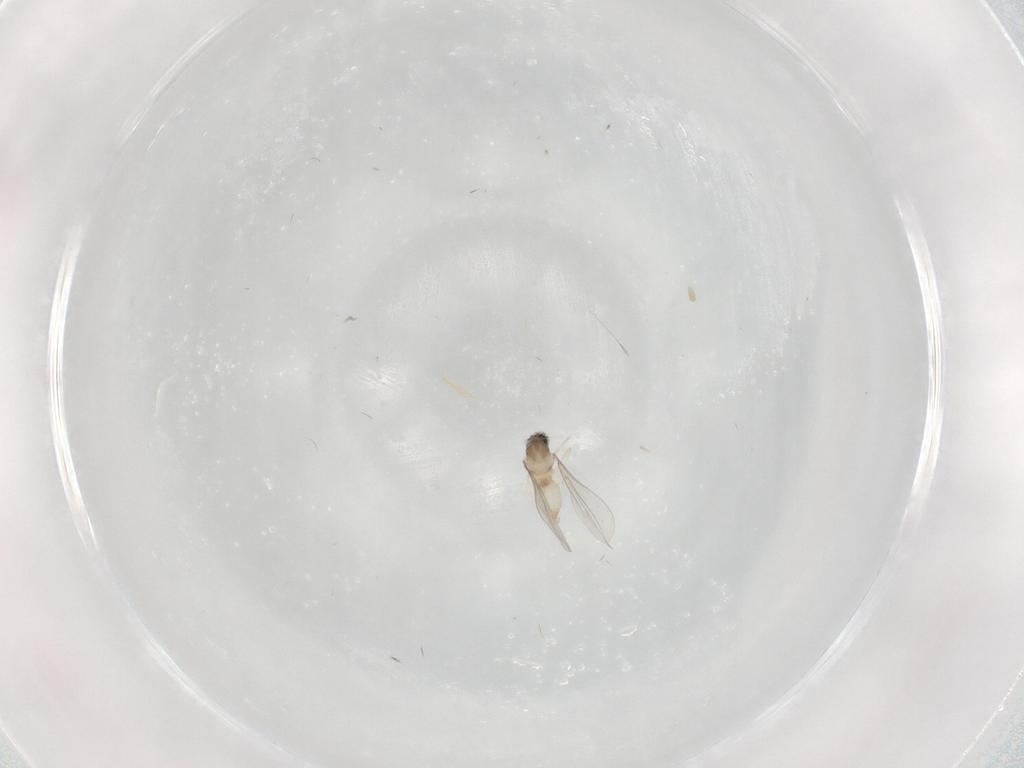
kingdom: Animalia
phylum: Arthropoda
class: Insecta
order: Diptera
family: Cecidomyiidae
